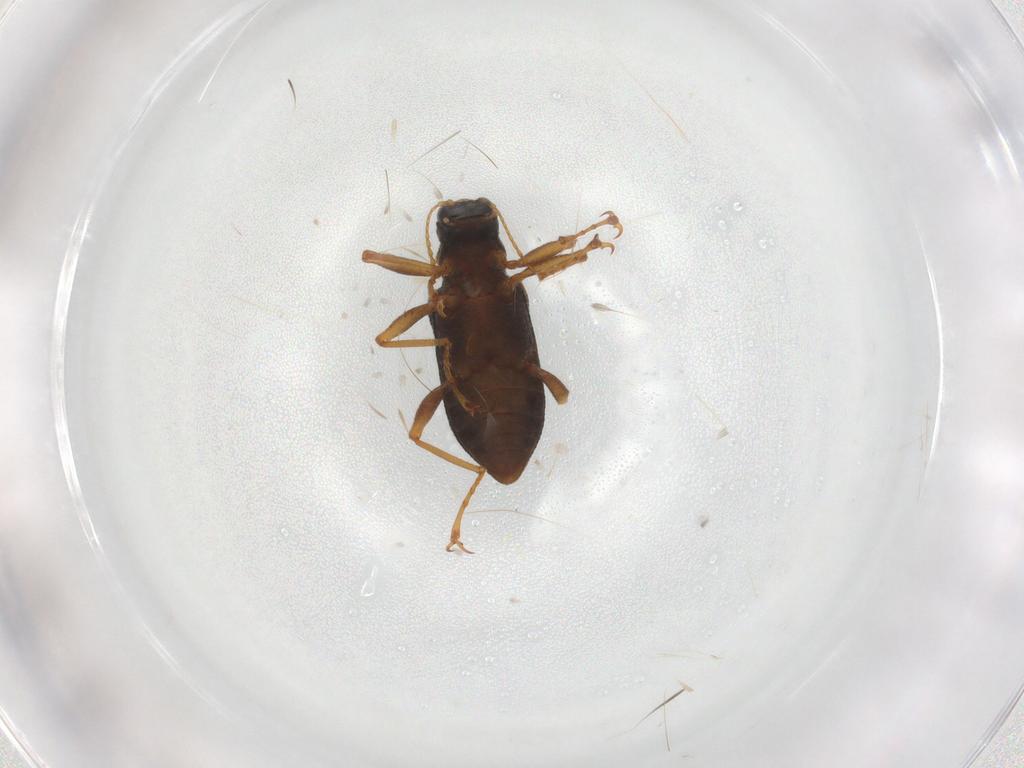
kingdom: Animalia
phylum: Arthropoda
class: Insecta
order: Coleoptera
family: Elmidae
